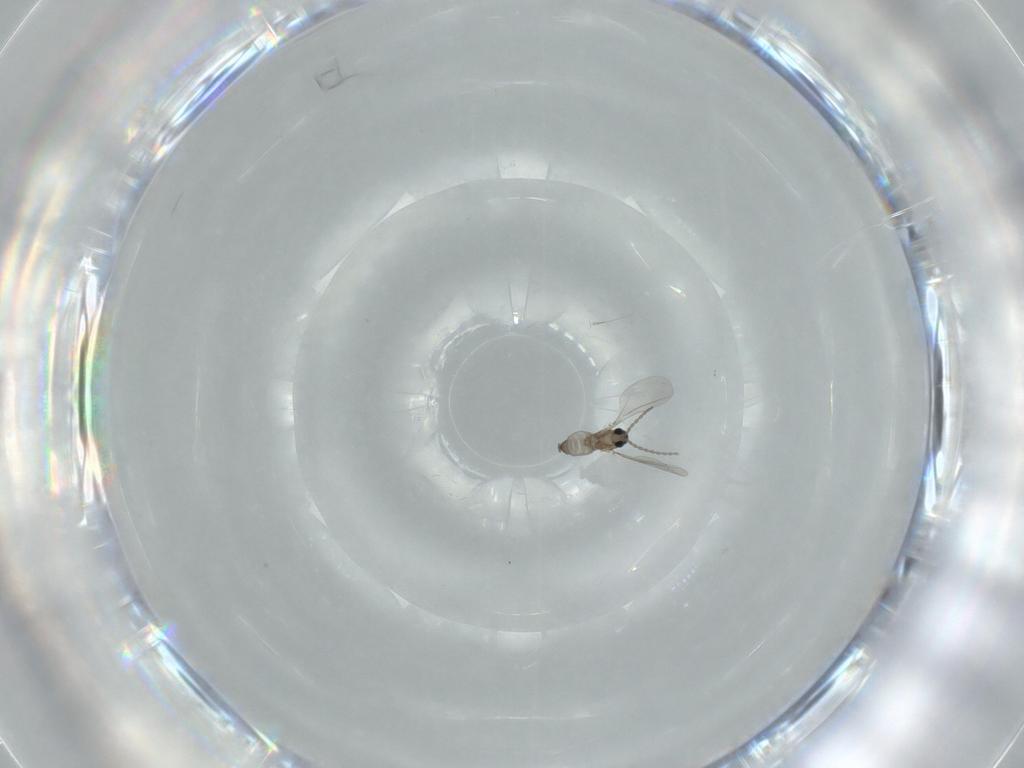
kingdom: Animalia
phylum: Arthropoda
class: Insecta
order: Diptera
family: Cecidomyiidae
